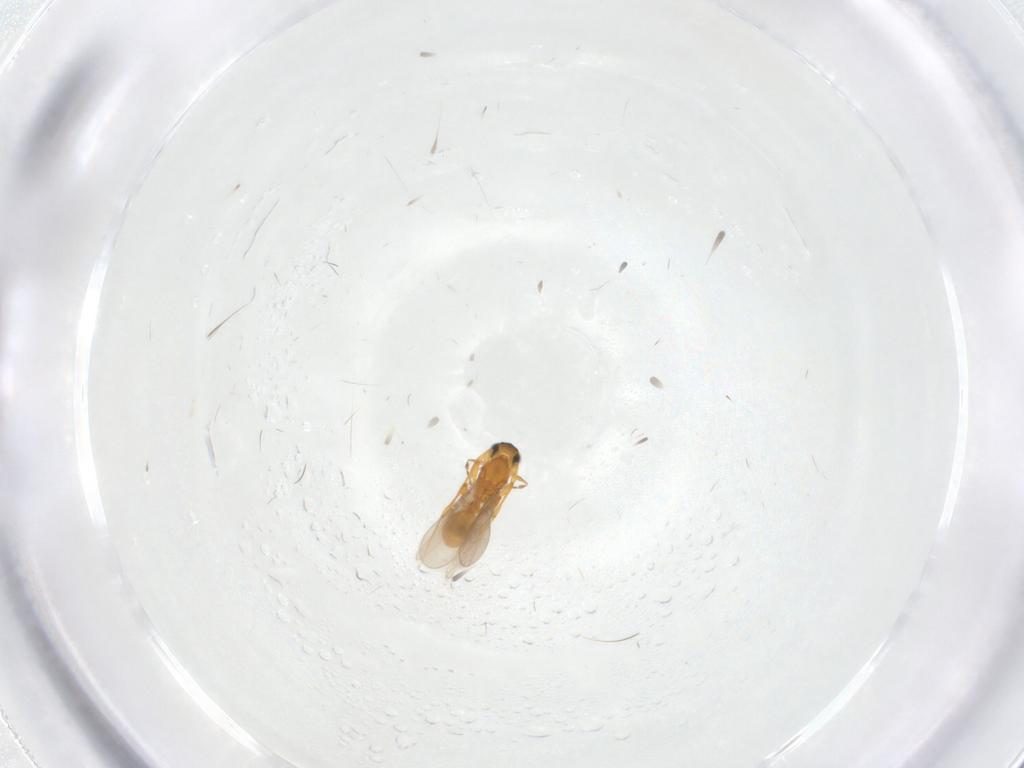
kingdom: Animalia
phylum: Arthropoda
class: Insecta
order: Hymenoptera
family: Platygastridae
